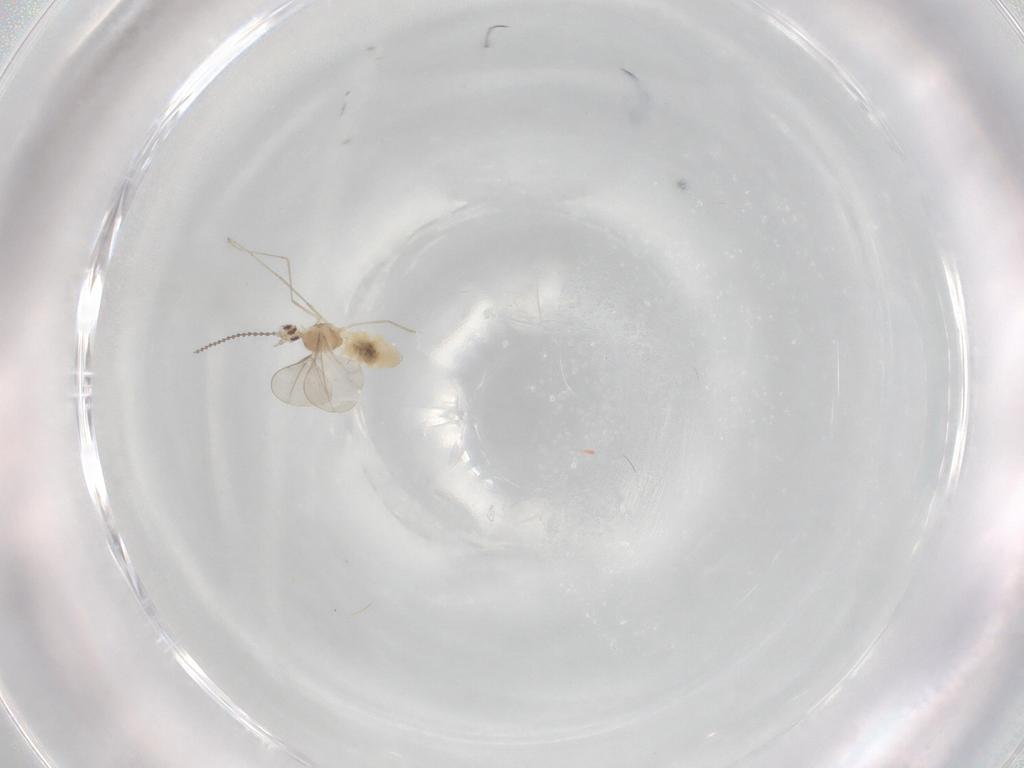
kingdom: Animalia
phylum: Arthropoda
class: Insecta
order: Diptera
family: Cecidomyiidae
